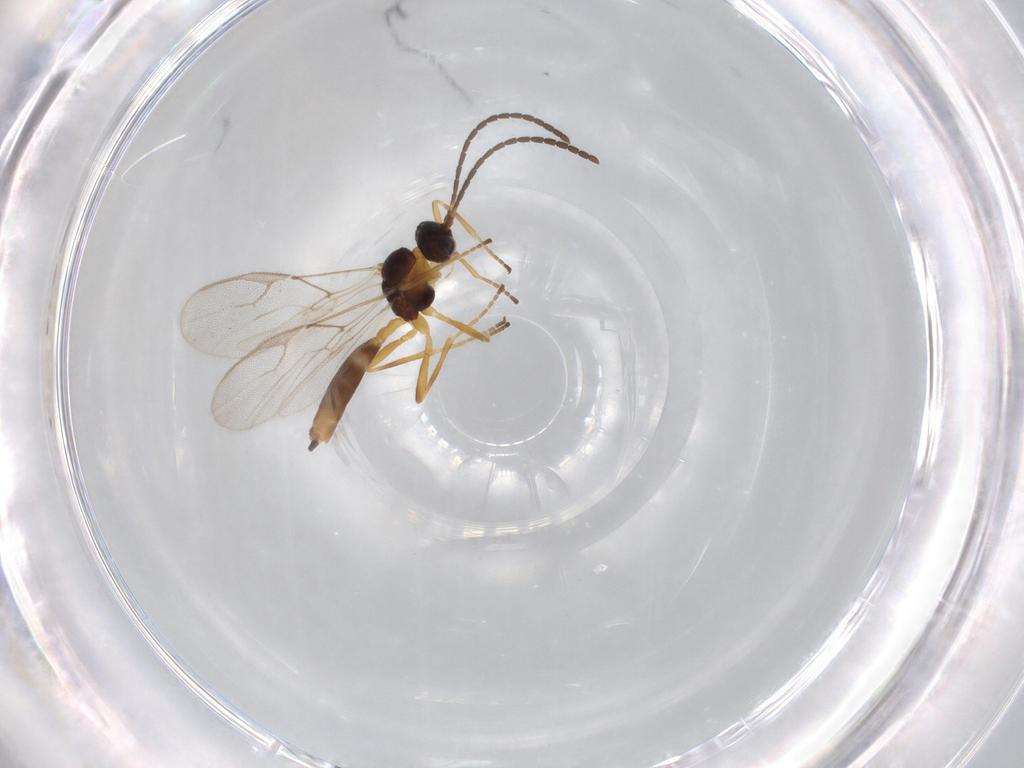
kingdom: Animalia
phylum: Arthropoda
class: Insecta
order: Hymenoptera
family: Braconidae
